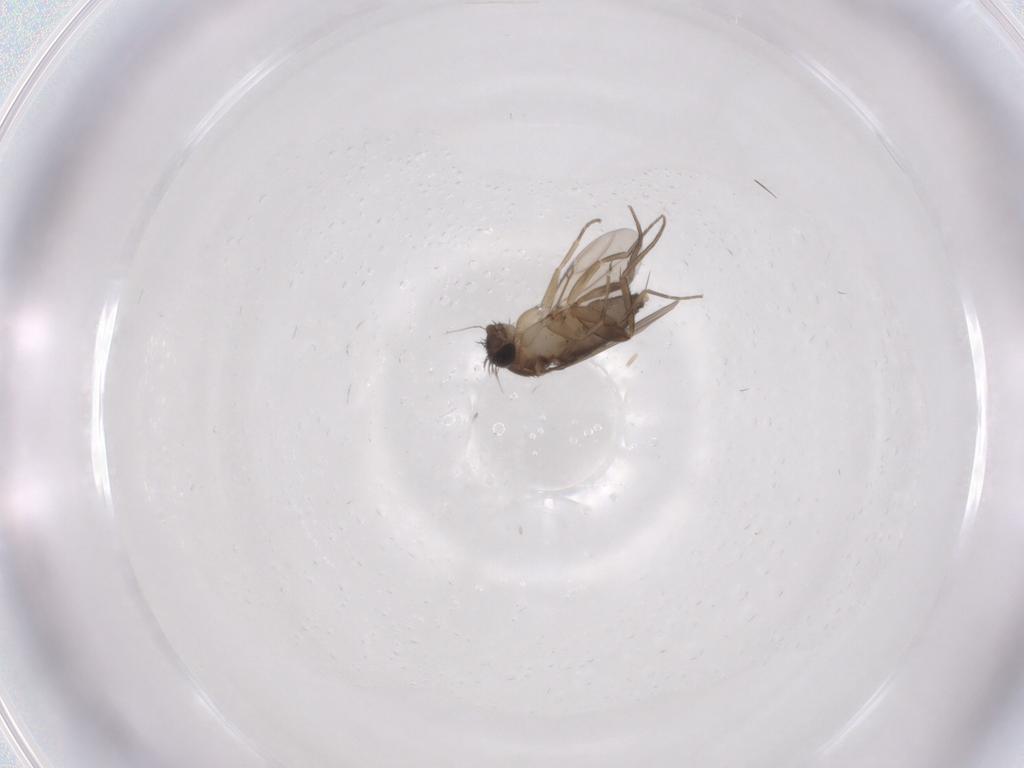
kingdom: Animalia
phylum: Arthropoda
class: Insecta
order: Diptera
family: Phoridae
